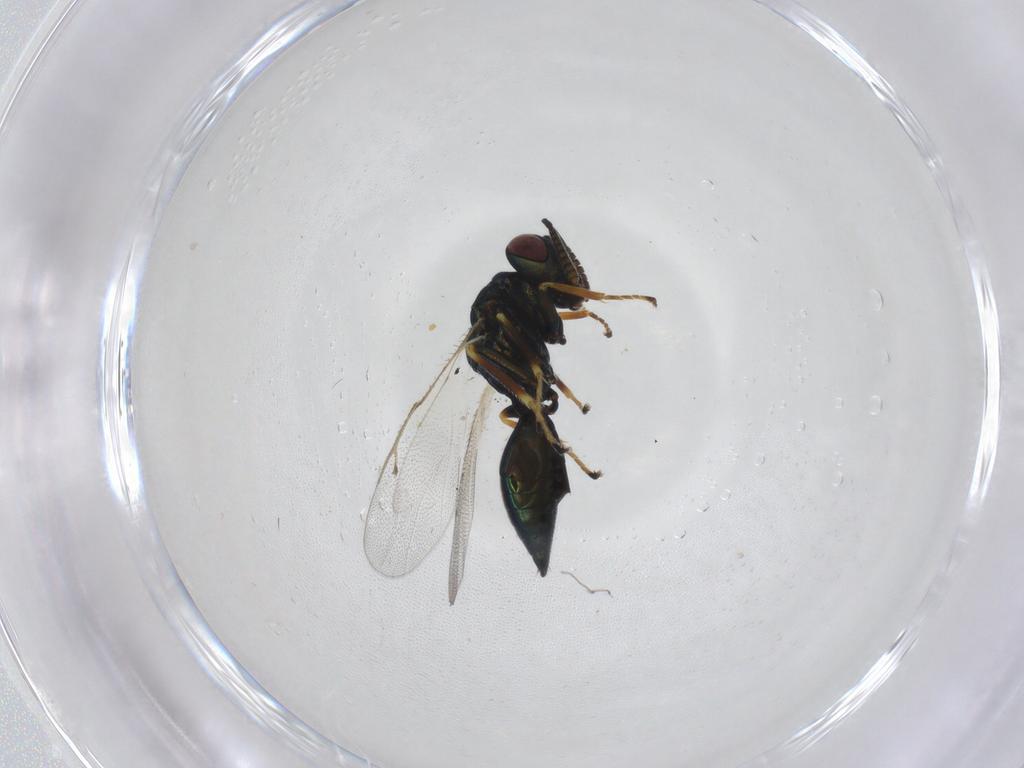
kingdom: Animalia
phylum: Arthropoda
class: Insecta
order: Hymenoptera
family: Pteromalidae
